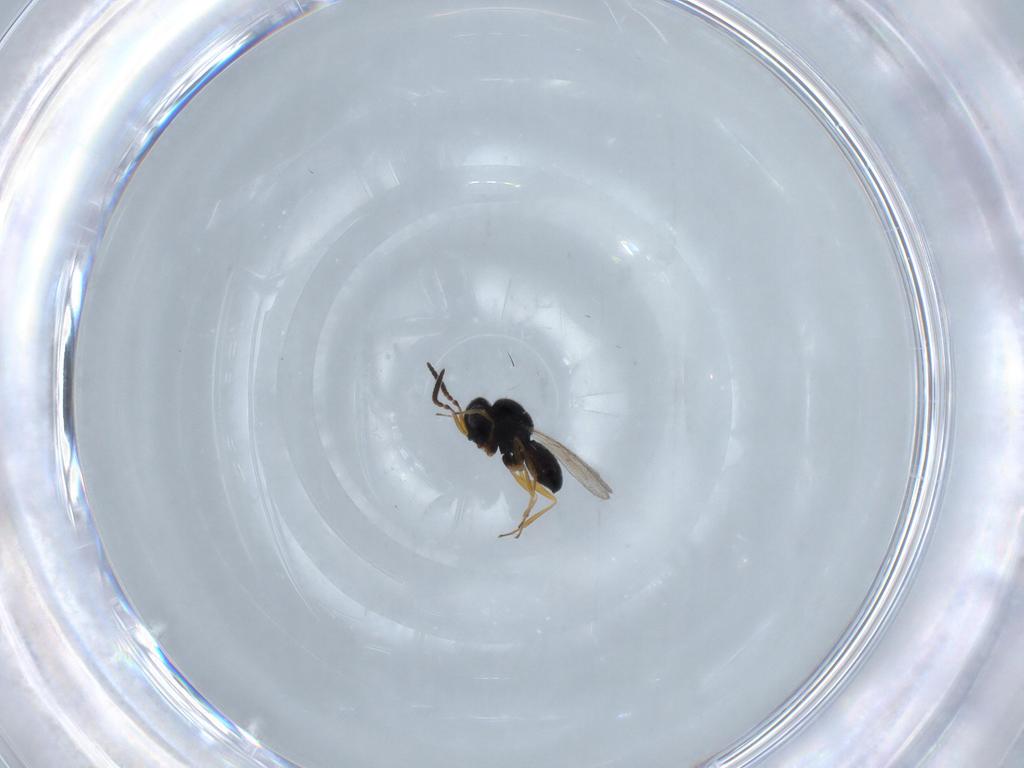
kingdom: Animalia
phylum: Arthropoda
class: Insecta
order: Hymenoptera
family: Scelionidae
